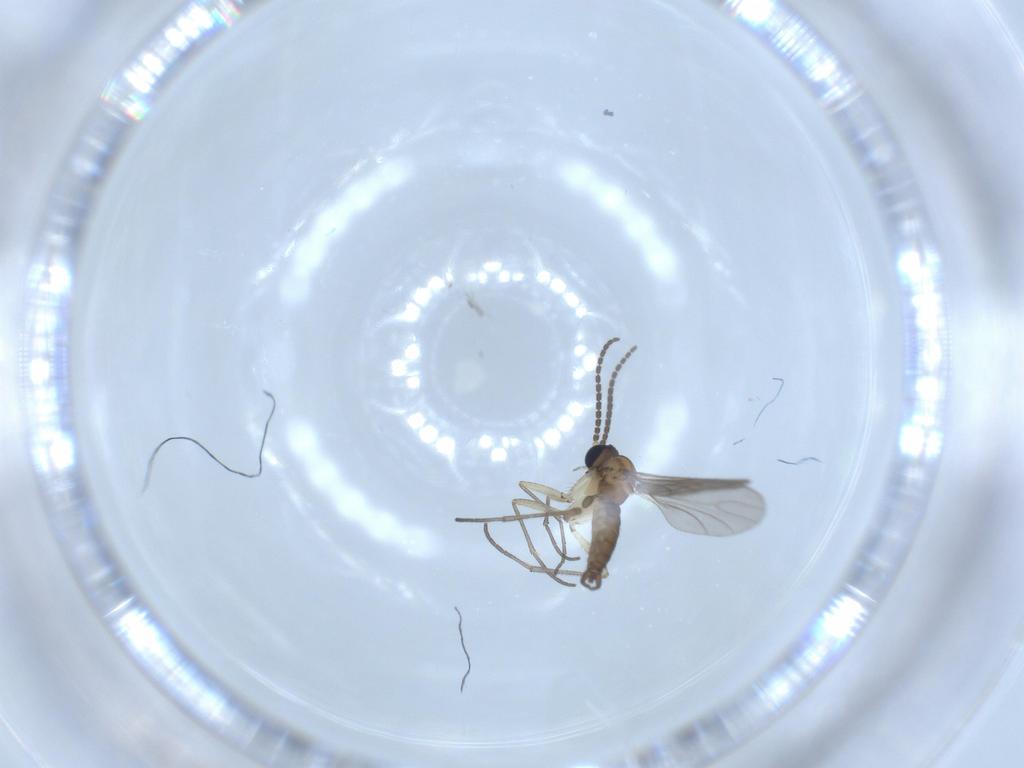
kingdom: Animalia
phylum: Arthropoda
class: Insecta
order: Diptera
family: Sciaridae
